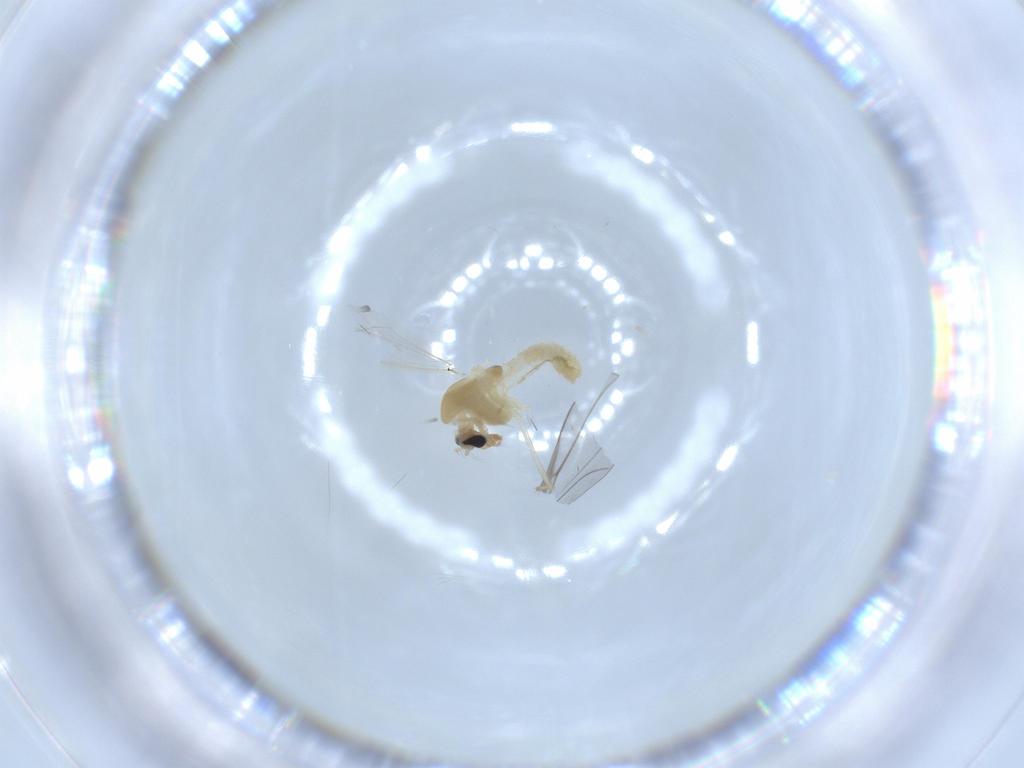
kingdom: Animalia
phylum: Arthropoda
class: Insecta
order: Diptera
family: Chironomidae
